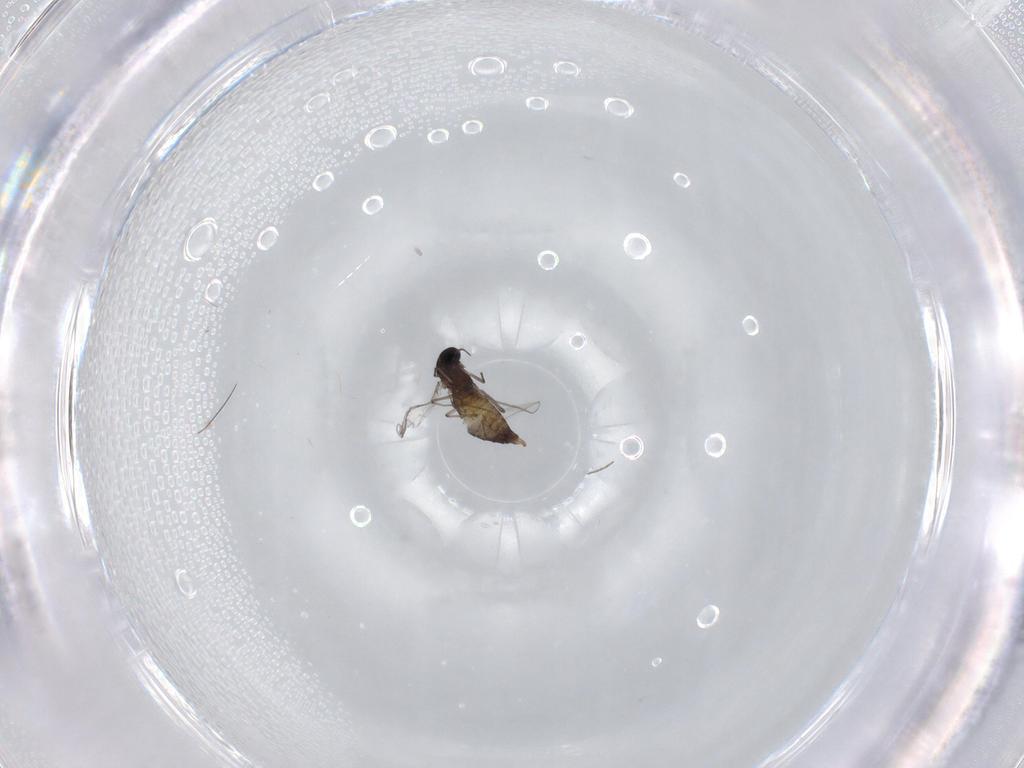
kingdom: Animalia
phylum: Arthropoda
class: Insecta
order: Diptera
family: Chironomidae
